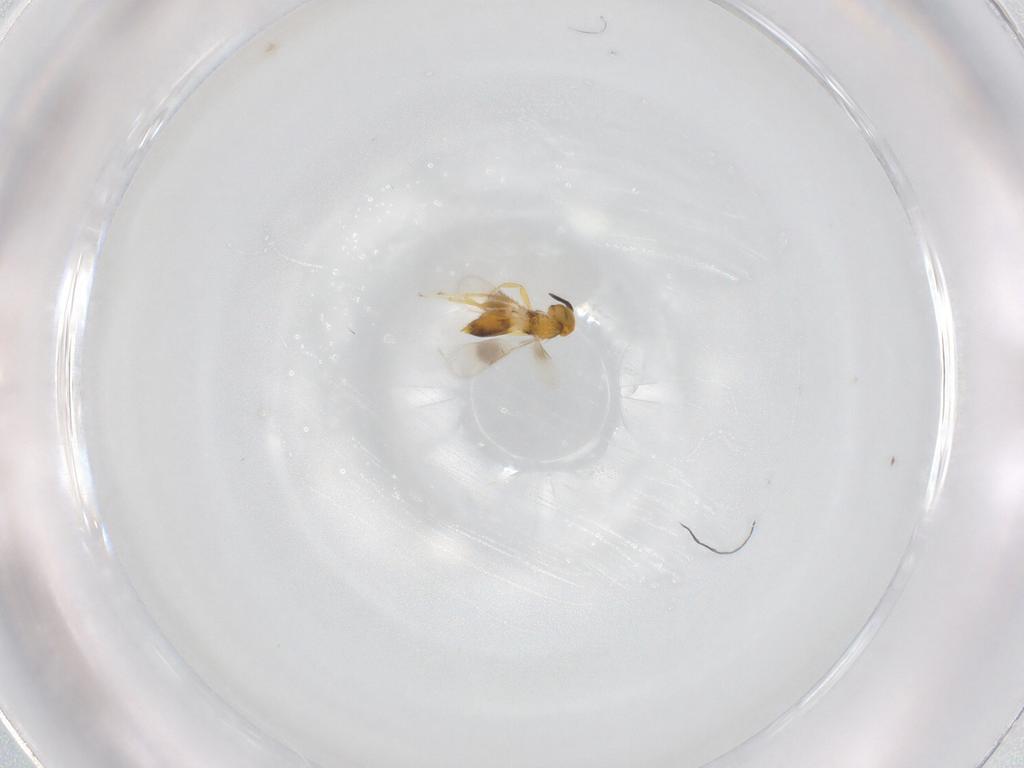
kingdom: Animalia
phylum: Arthropoda
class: Insecta
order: Hymenoptera
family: Encyrtidae
